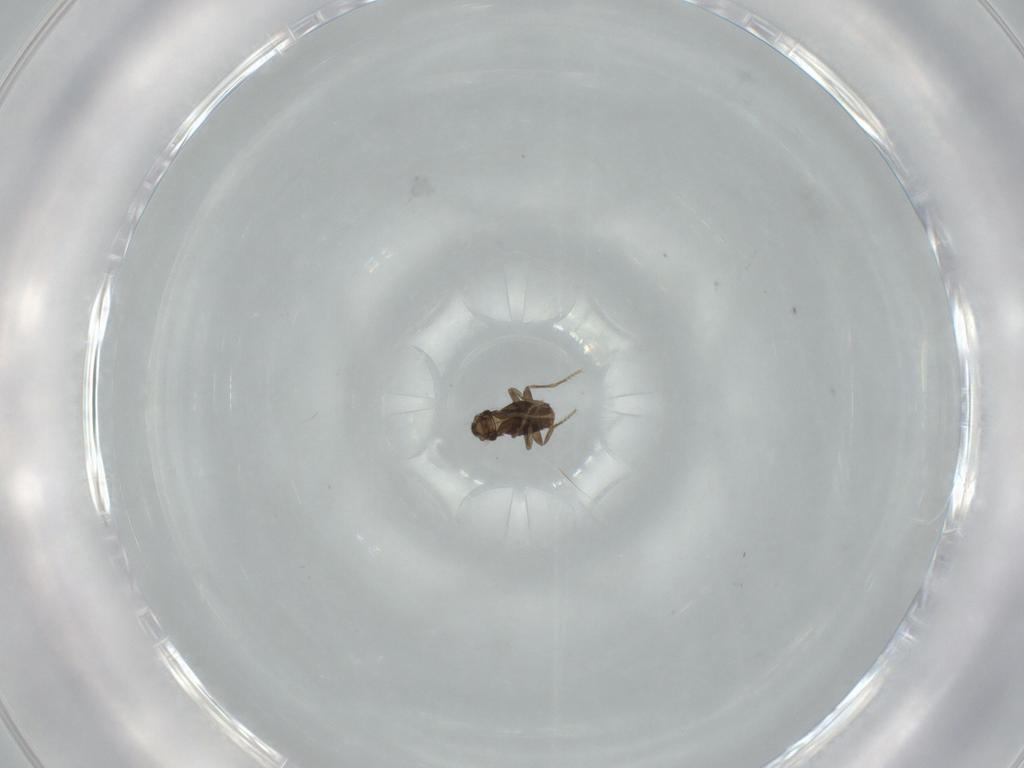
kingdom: Animalia
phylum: Arthropoda
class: Insecta
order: Diptera
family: Phoridae
